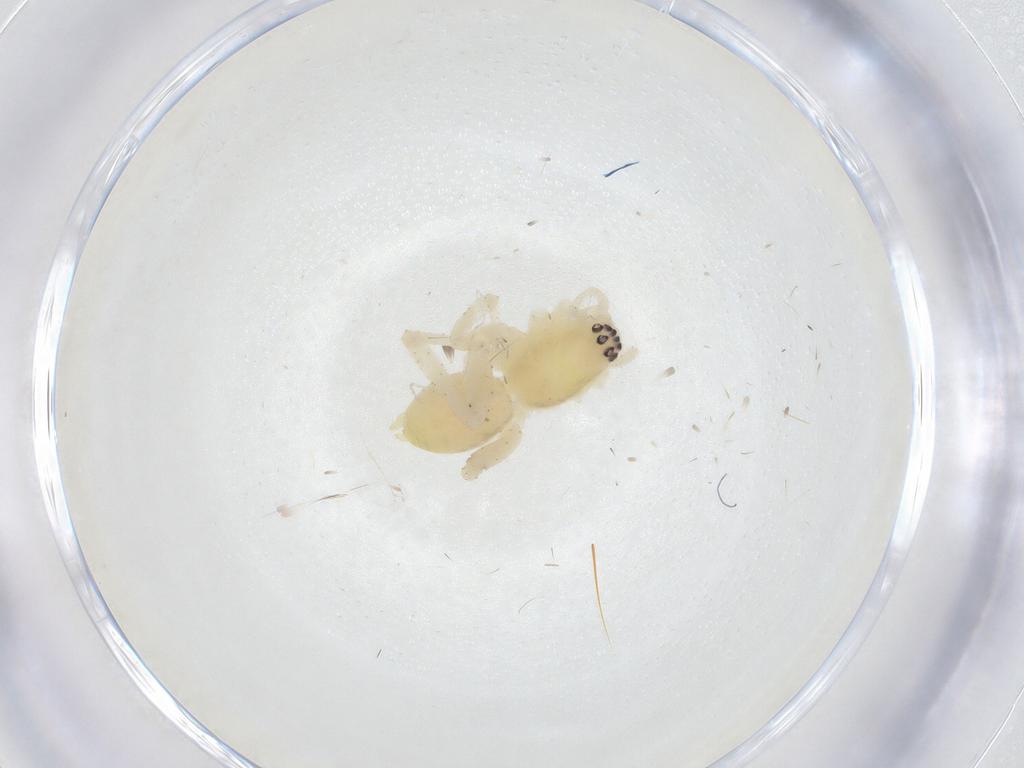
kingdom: Animalia
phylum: Arthropoda
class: Arachnida
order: Araneae
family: Anyphaenidae
